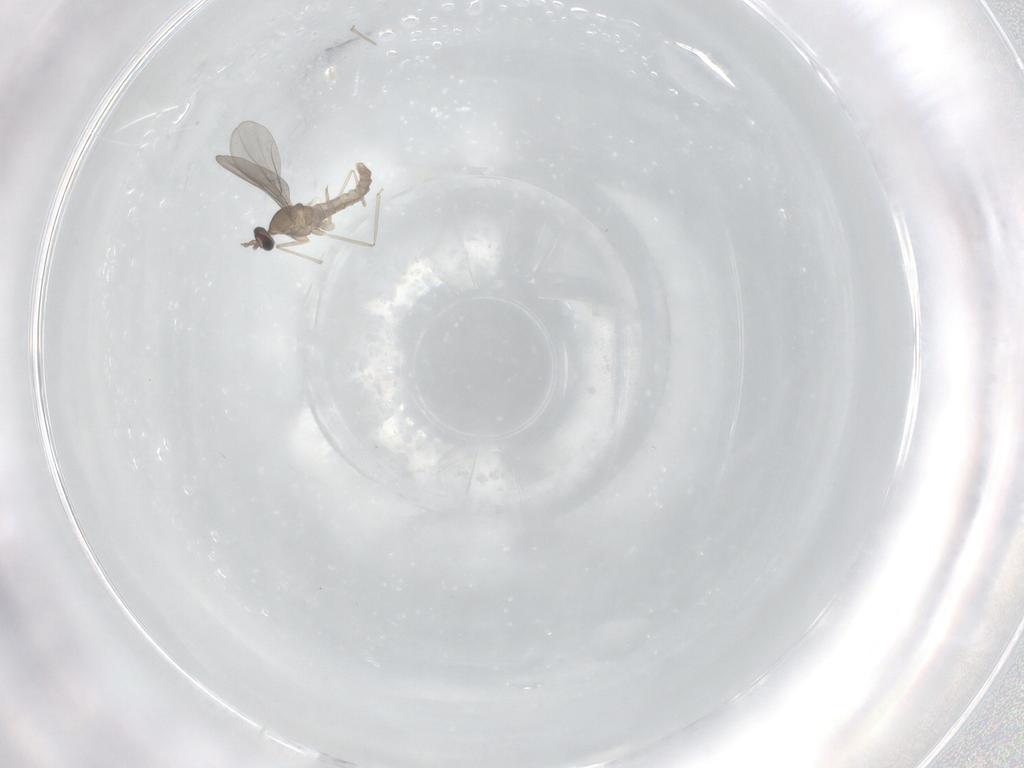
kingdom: Animalia
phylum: Arthropoda
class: Insecta
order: Diptera
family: Cecidomyiidae
